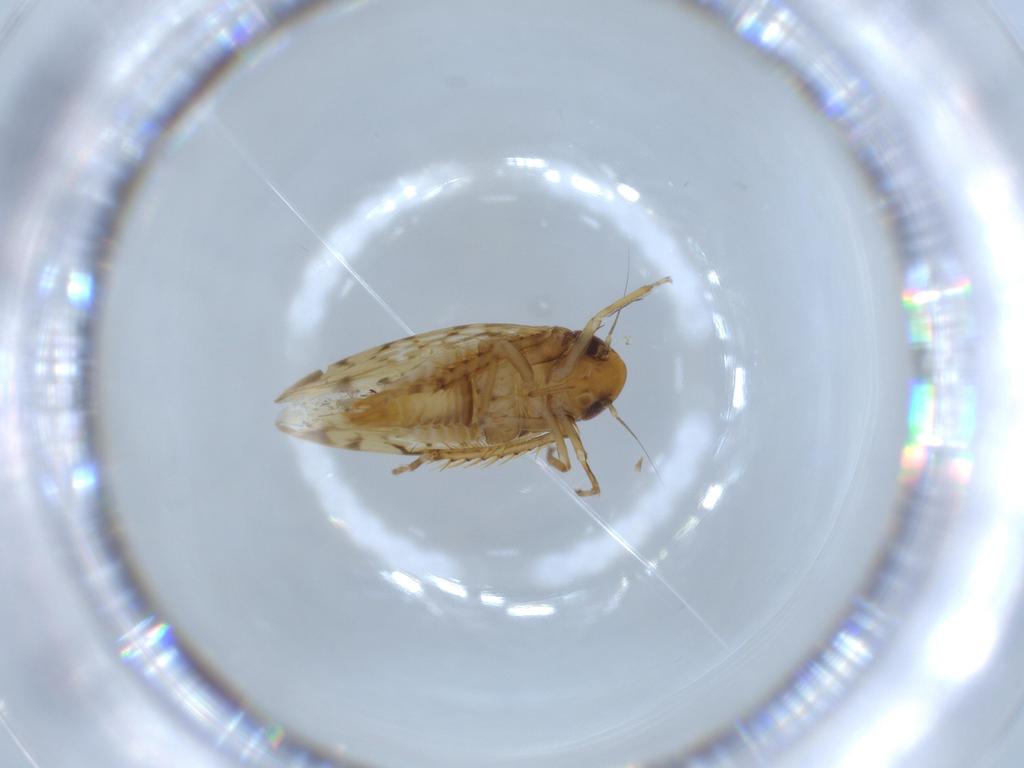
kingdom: Animalia
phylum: Arthropoda
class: Insecta
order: Hemiptera
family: Cicadellidae
